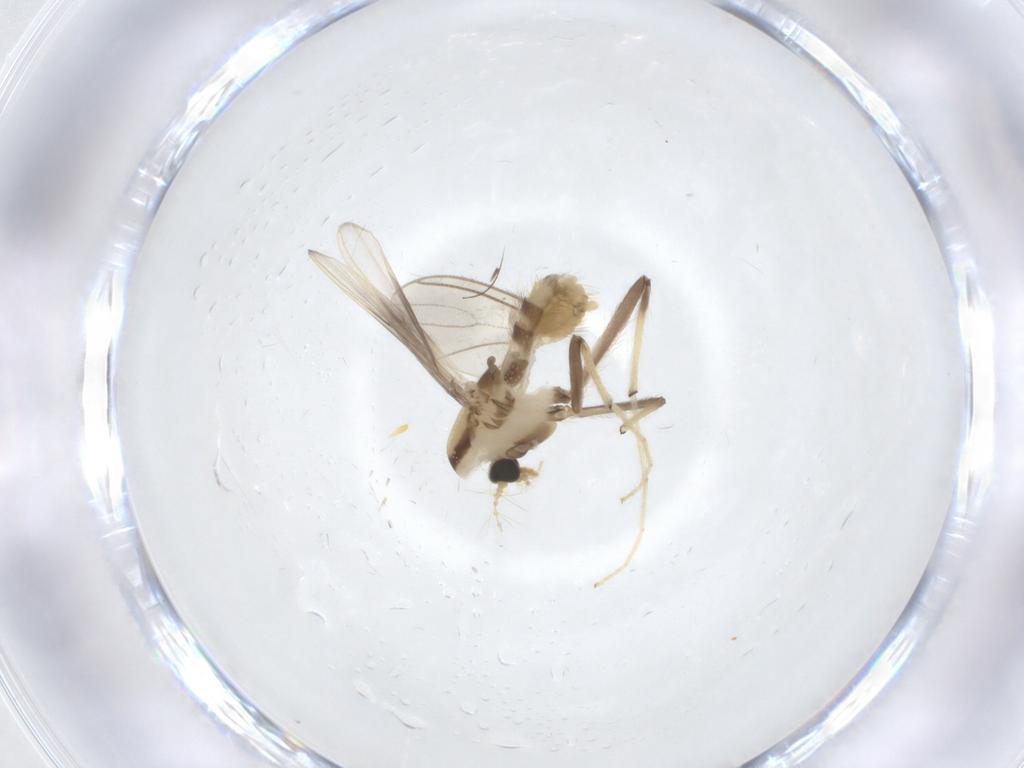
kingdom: Animalia
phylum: Arthropoda
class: Insecta
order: Diptera
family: Chironomidae
